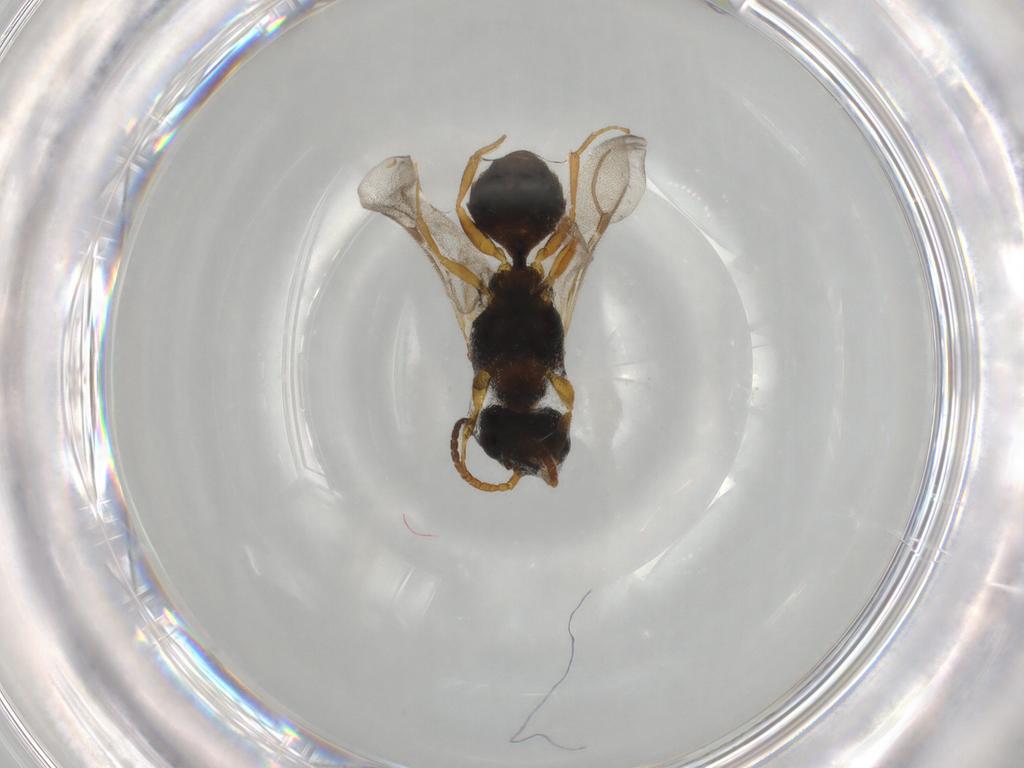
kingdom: Animalia
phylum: Arthropoda
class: Insecta
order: Hymenoptera
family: Bethylidae
